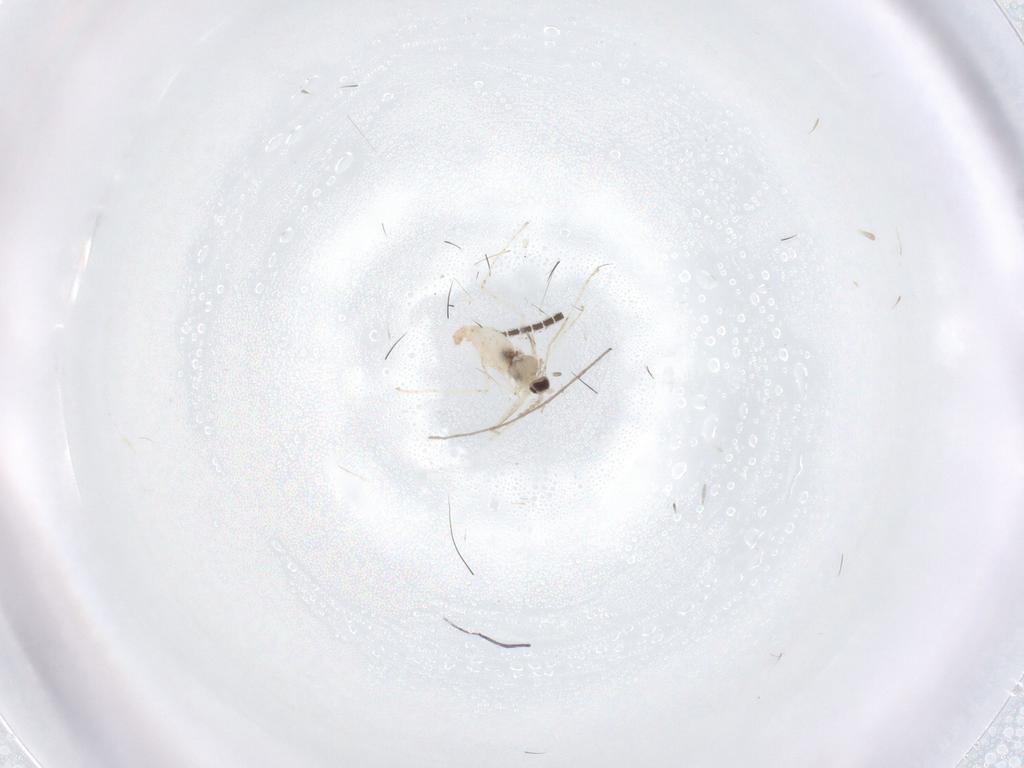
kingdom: Animalia
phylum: Arthropoda
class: Insecta
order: Diptera
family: Cecidomyiidae
